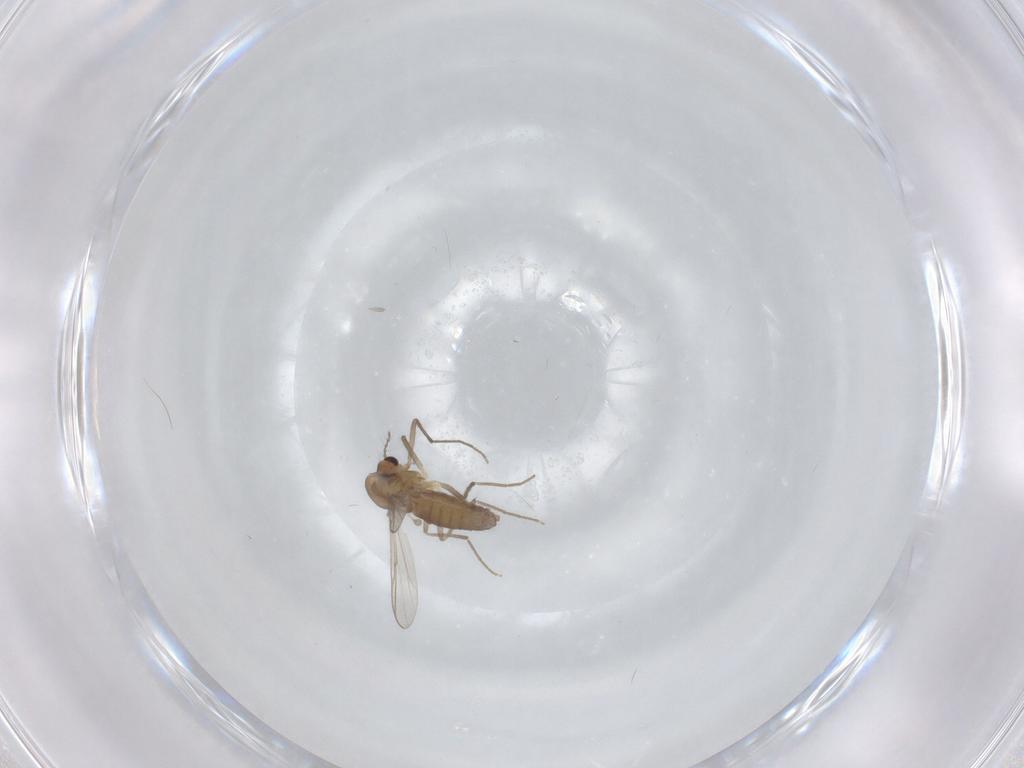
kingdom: Animalia
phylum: Arthropoda
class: Insecta
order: Diptera
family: Chironomidae
